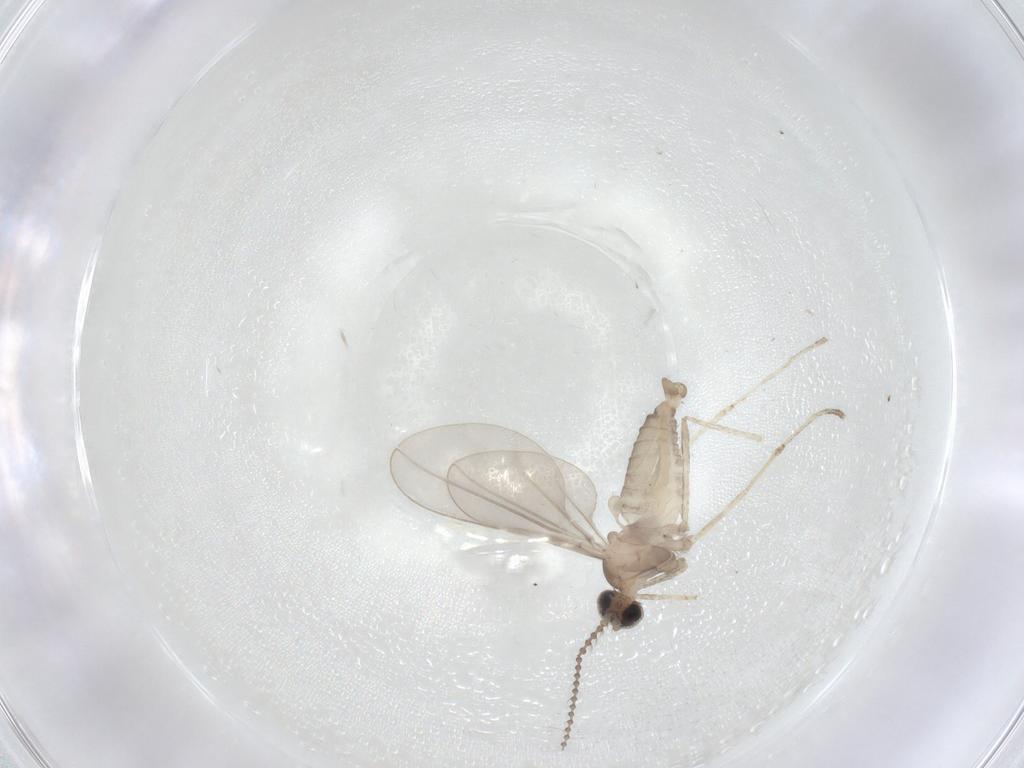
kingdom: Animalia
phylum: Arthropoda
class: Insecta
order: Diptera
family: Cecidomyiidae
